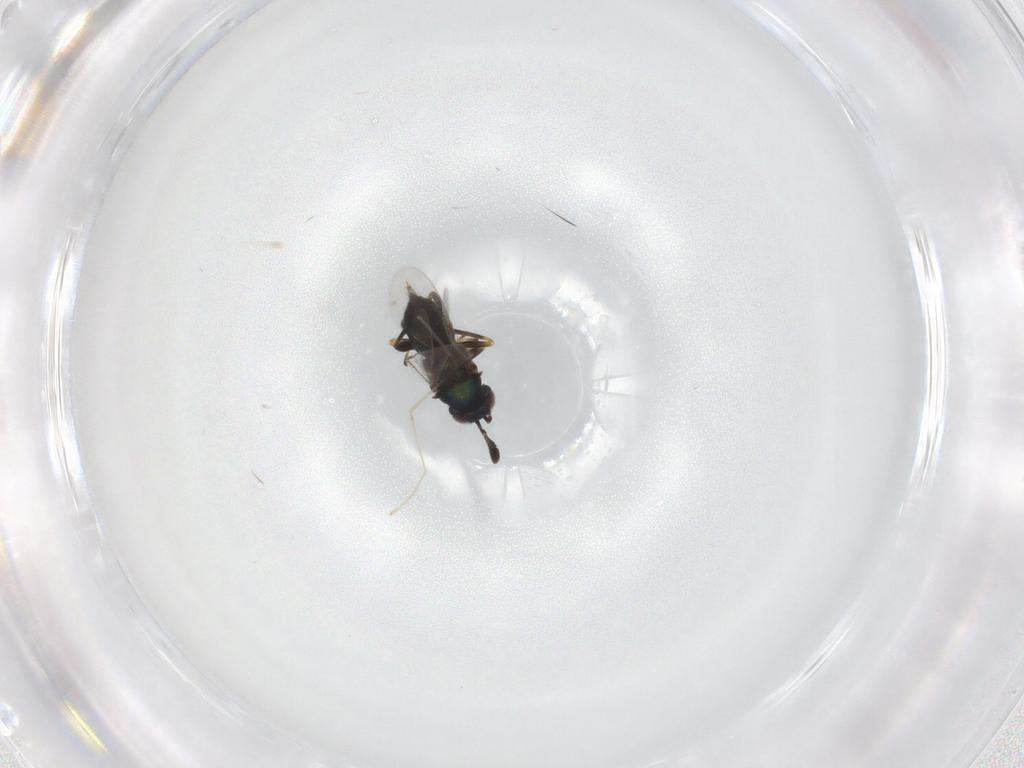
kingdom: Animalia
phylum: Arthropoda
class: Insecta
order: Hymenoptera
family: Encyrtidae
